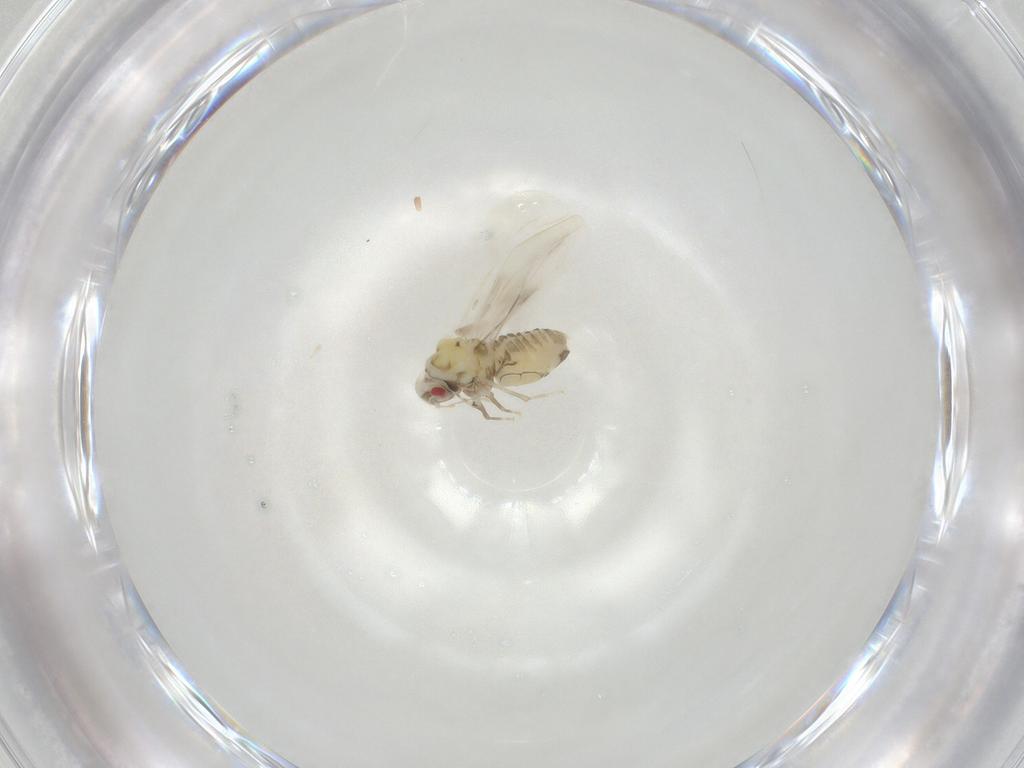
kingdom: Animalia
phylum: Arthropoda
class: Insecta
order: Hemiptera
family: Aleyrodidae
